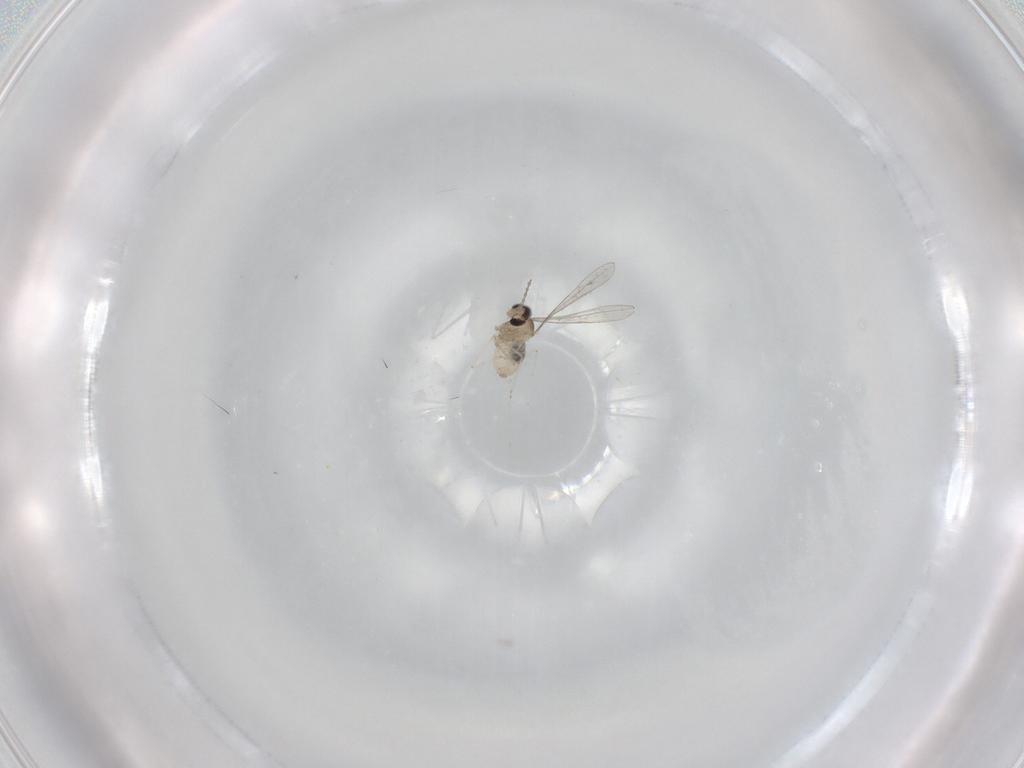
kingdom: Animalia
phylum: Arthropoda
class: Insecta
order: Diptera
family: Cecidomyiidae
